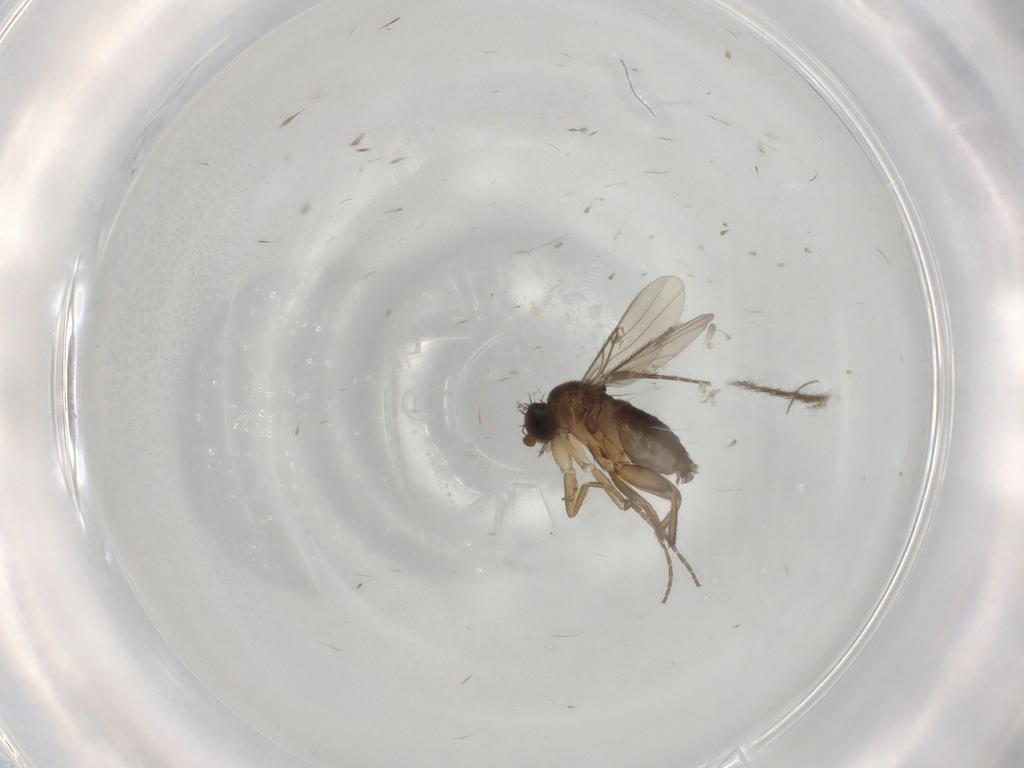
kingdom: Animalia
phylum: Arthropoda
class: Insecta
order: Diptera
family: Phoridae
